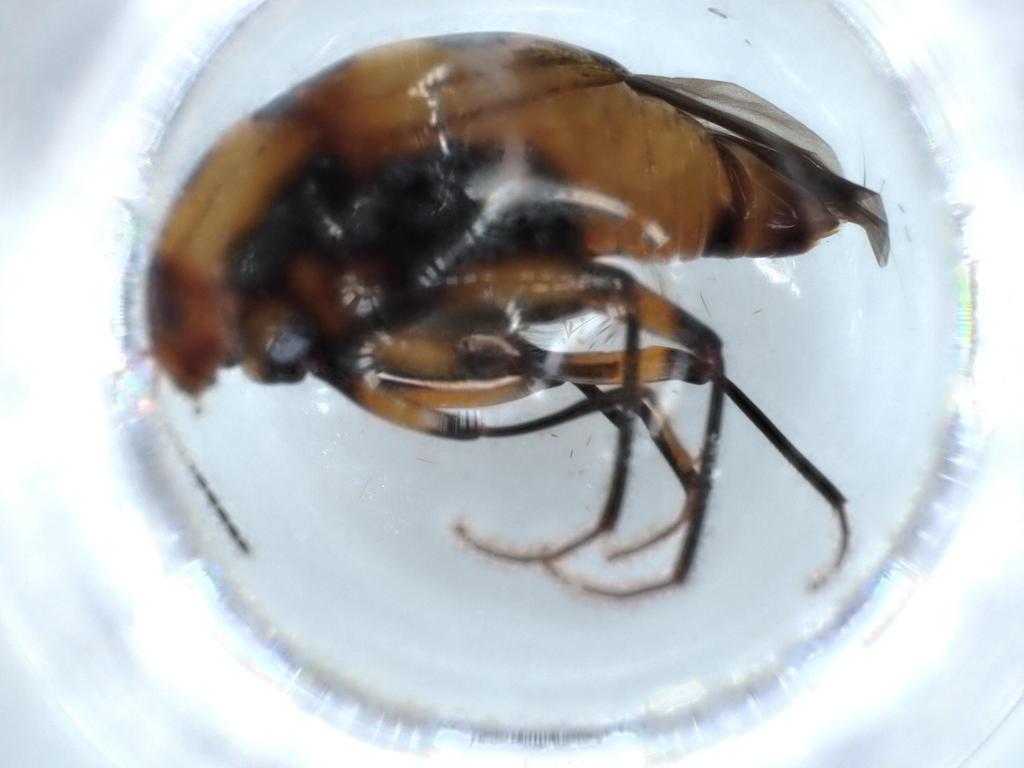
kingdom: Animalia
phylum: Arthropoda
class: Insecta
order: Coleoptera
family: Staphylinidae
